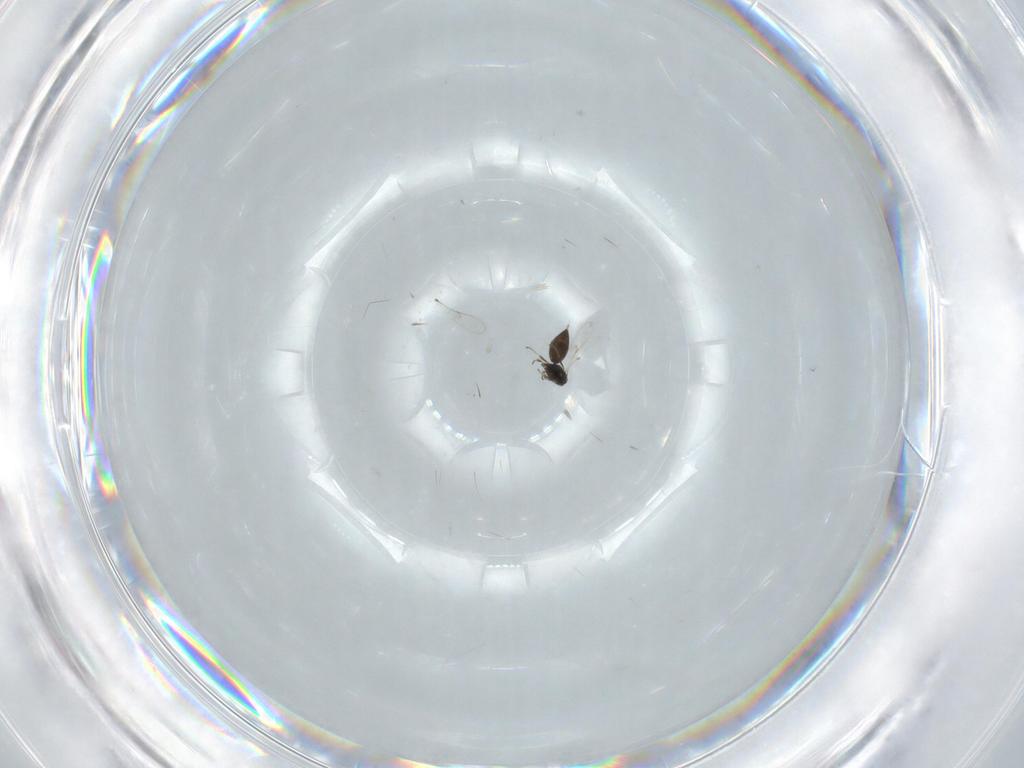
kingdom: Animalia
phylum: Arthropoda
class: Insecta
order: Hymenoptera
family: Scelionidae
